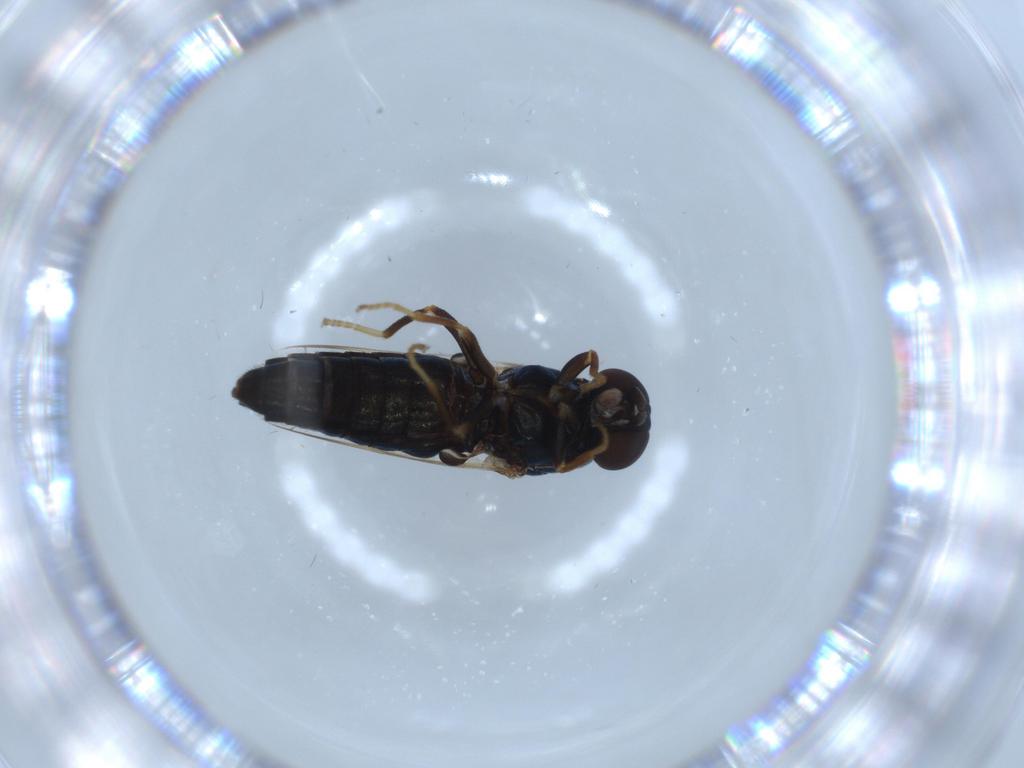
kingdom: Animalia
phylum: Arthropoda
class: Insecta
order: Diptera
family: Scenopinidae
